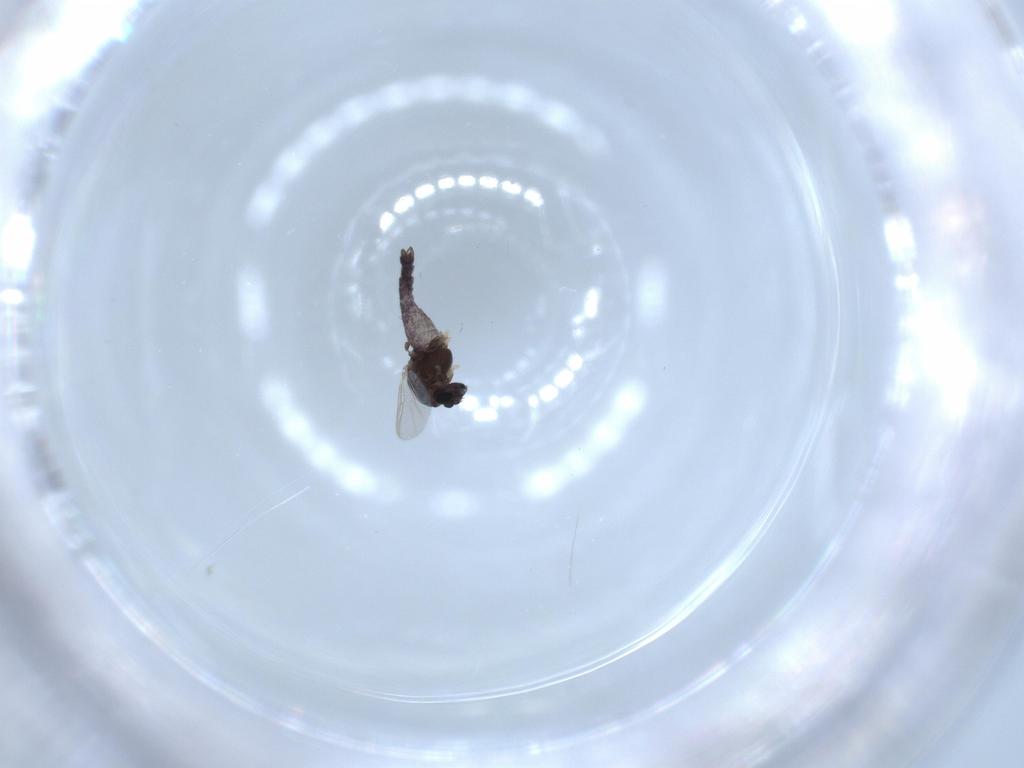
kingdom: Animalia
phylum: Arthropoda
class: Insecta
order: Diptera
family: Chironomidae
